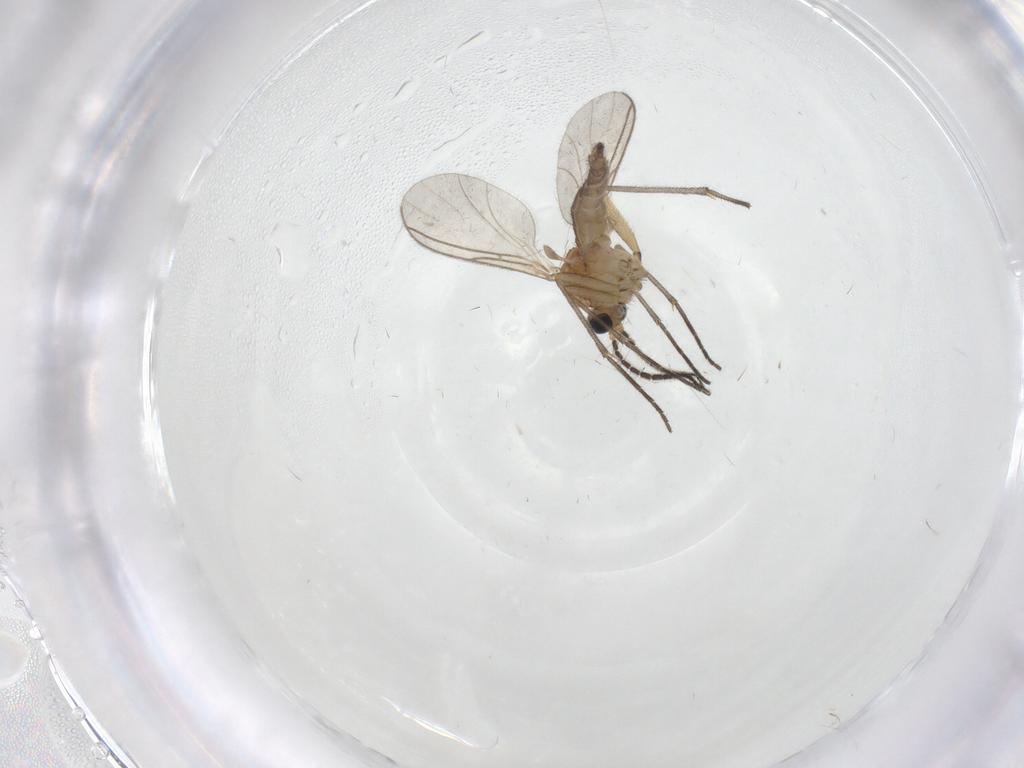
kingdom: Animalia
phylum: Arthropoda
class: Insecta
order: Diptera
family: Sciaridae
